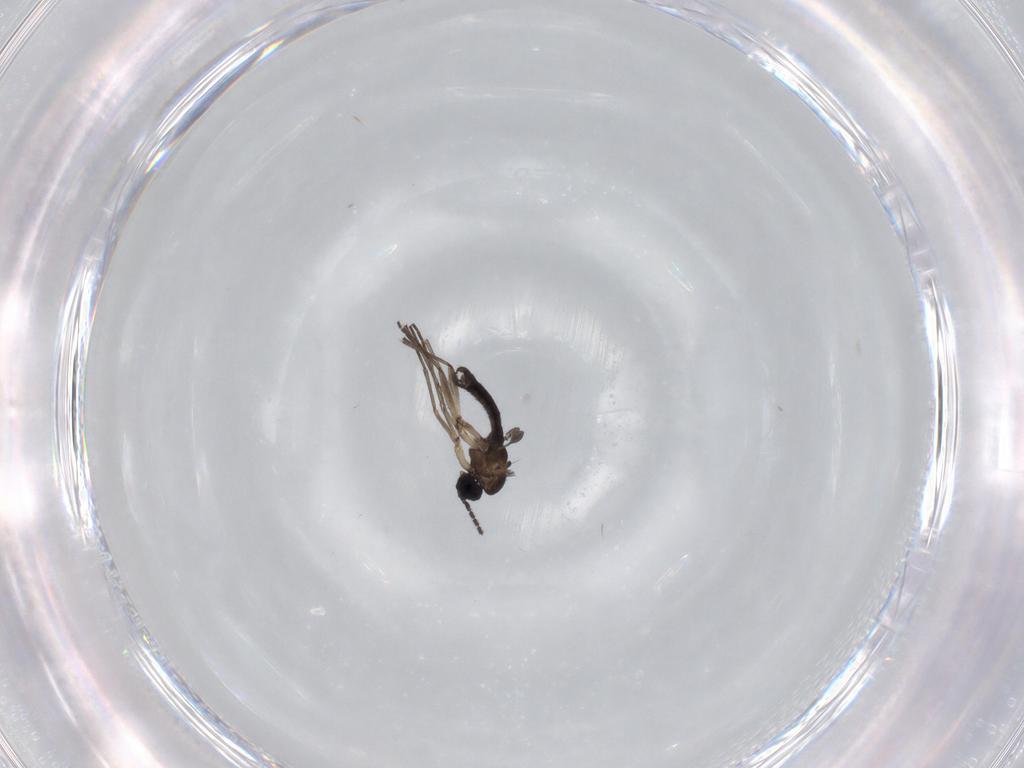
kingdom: Animalia
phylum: Arthropoda
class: Insecta
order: Diptera
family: Sciaridae
